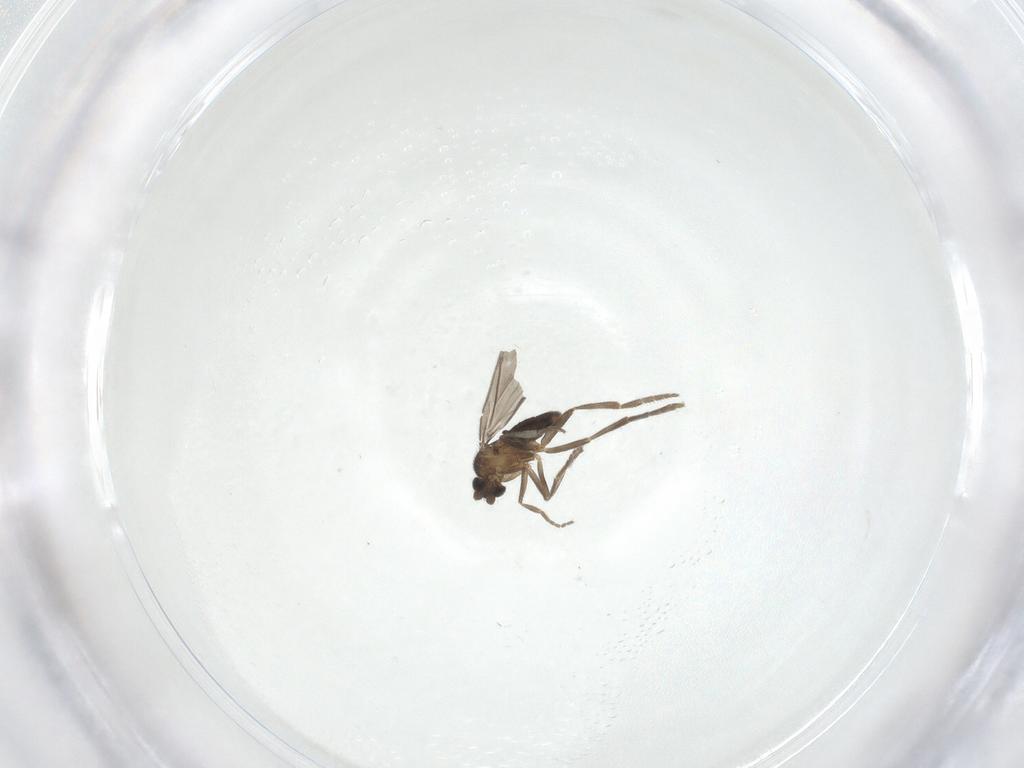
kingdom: Animalia
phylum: Arthropoda
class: Insecta
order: Diptera
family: Phoridae
